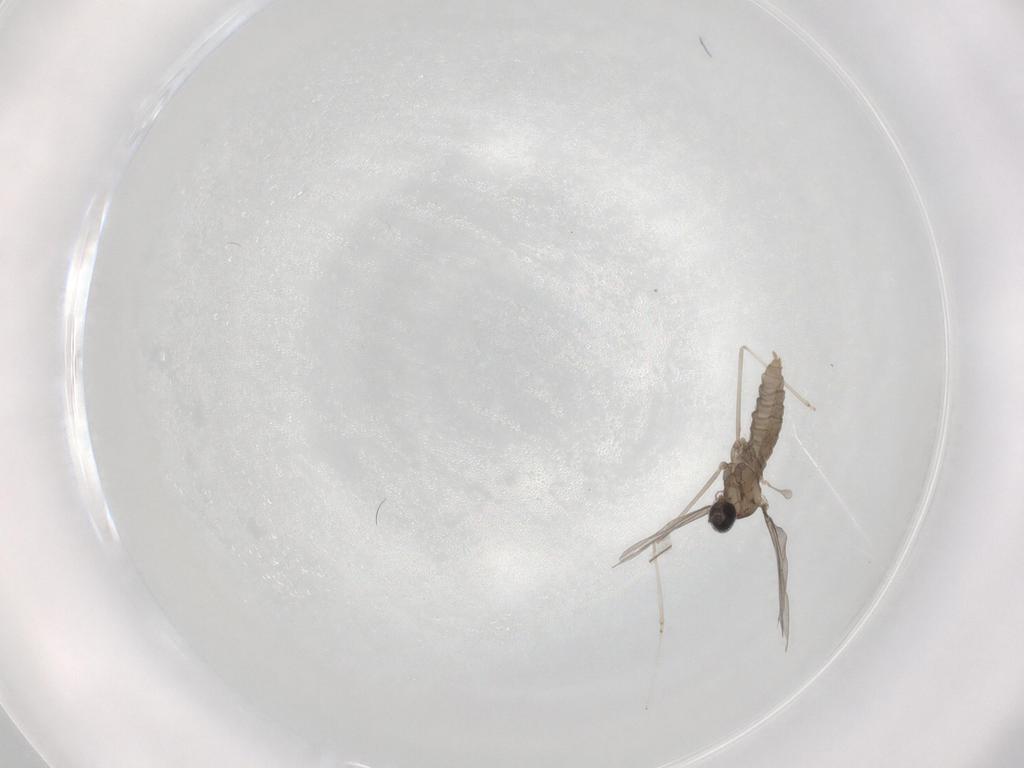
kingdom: Animalia
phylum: Arthropoda
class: Insecta
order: Diptera
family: Cecidomyiidae
